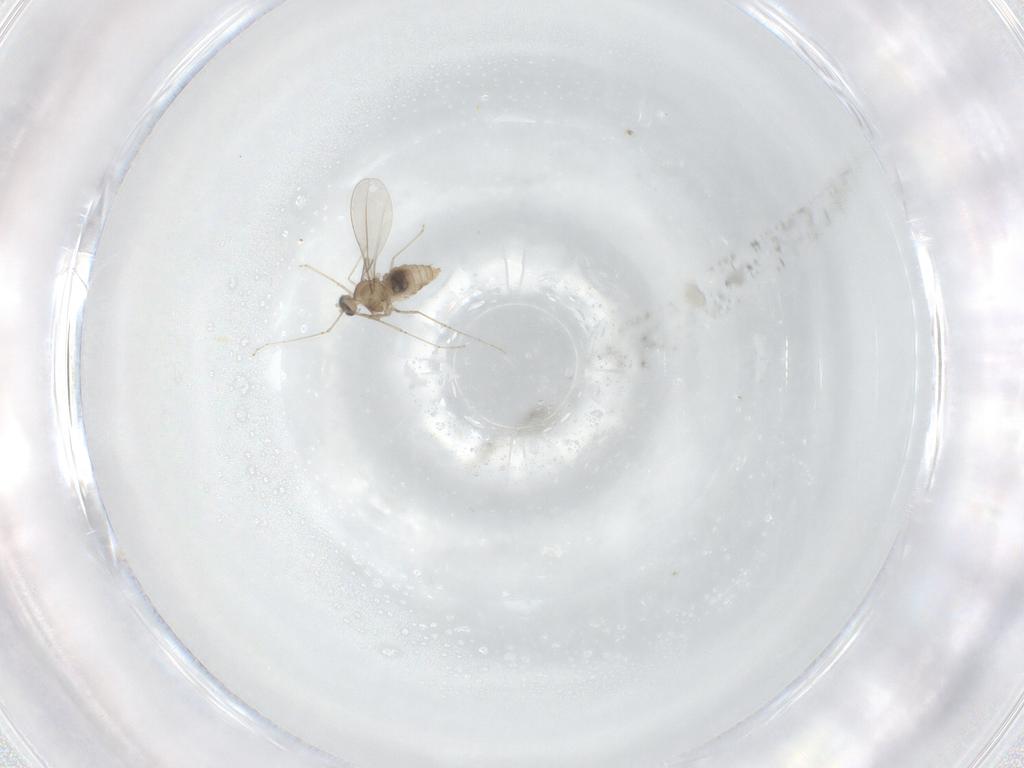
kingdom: Animalia
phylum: Arthropoda
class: Insecta
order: Diptera
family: Cecidomyiidae
